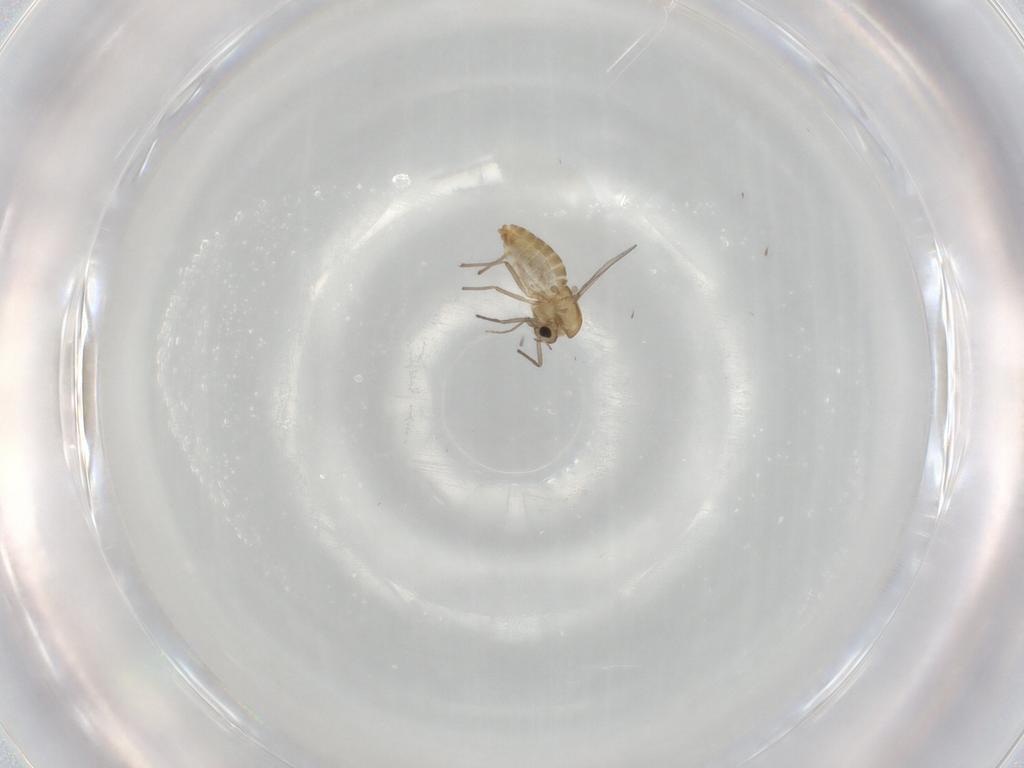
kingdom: Animalia
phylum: Arthropoda
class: Insecta
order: Diptera
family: Chironomidae
